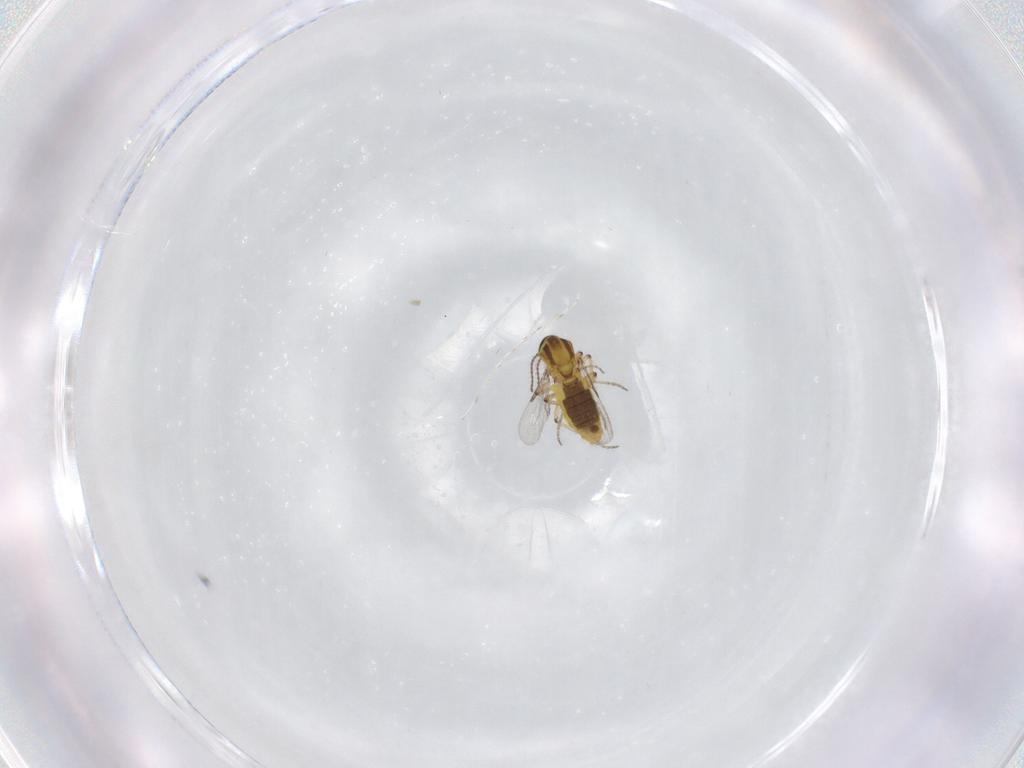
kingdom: Animalia
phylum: Arthropoda
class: Insecta
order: Diptera
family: Ceratopogonidae
